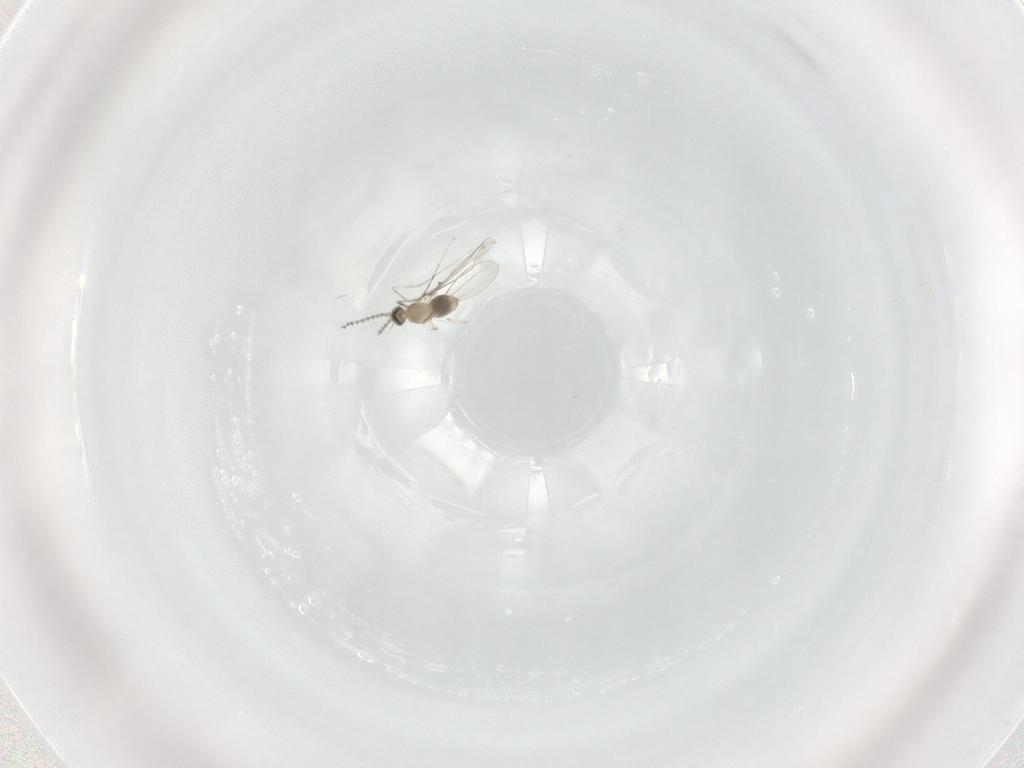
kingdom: Animalia
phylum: Arthropoda
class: Insecta
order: Diptera
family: Cecidomyiidae
